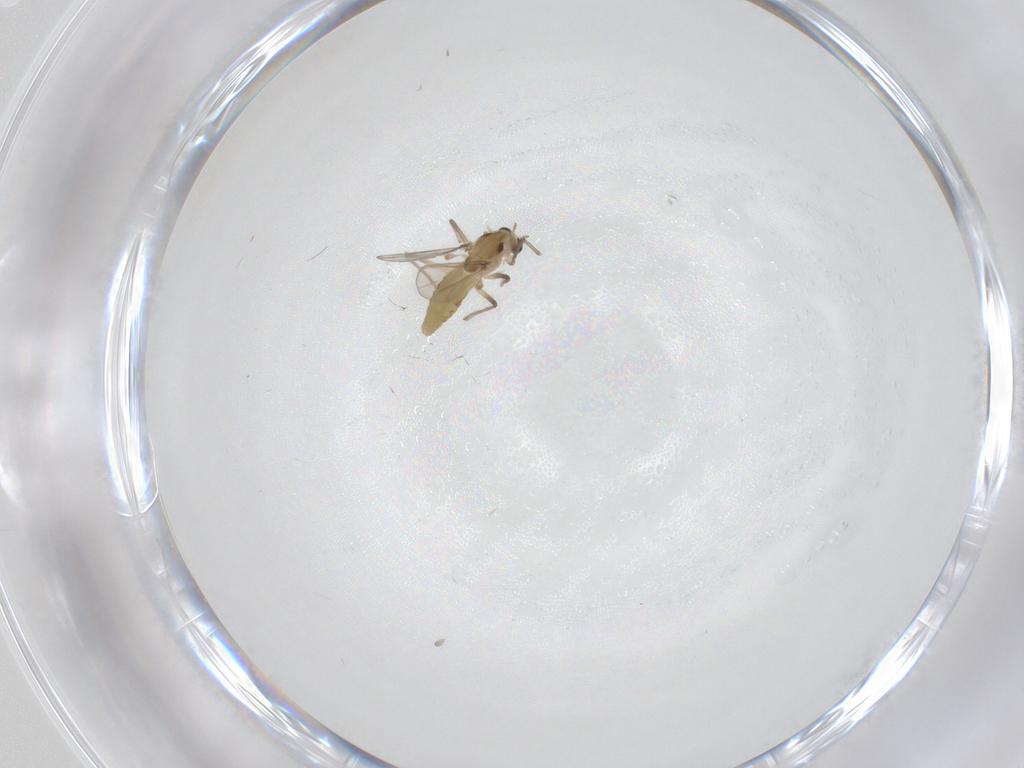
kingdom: Animalia
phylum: Arthropoda
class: Insecta
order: Diptera
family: Chironomidae
